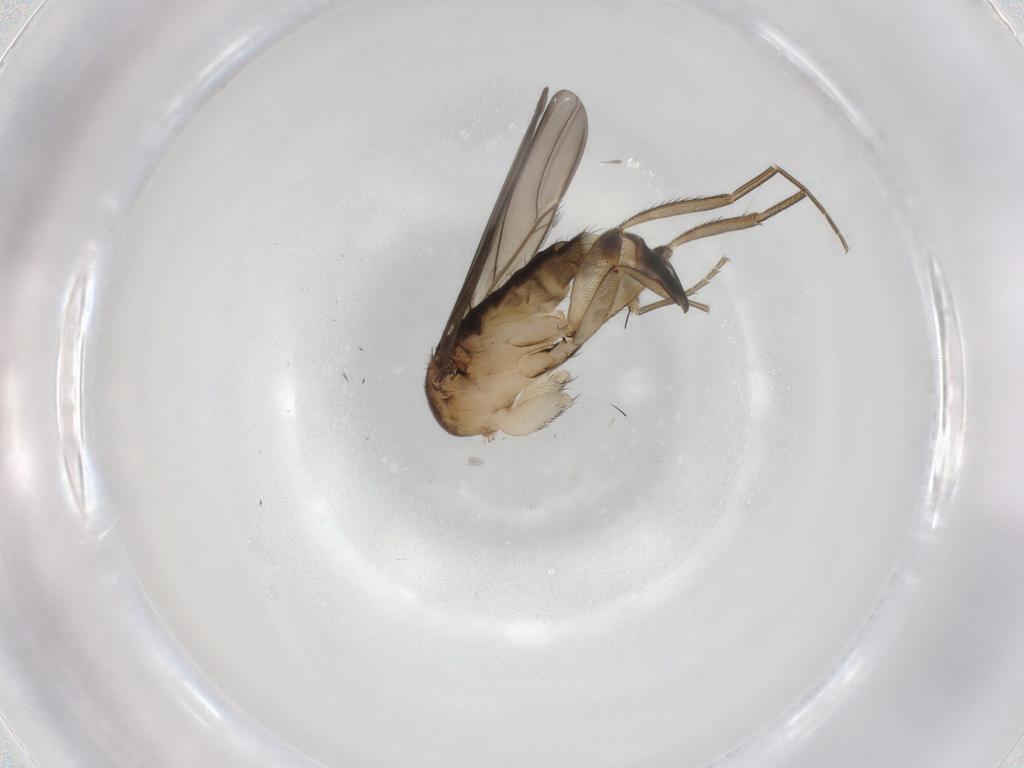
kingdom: Animalia
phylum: Arthropoda
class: Insecta
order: Diptera
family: Phoridae
